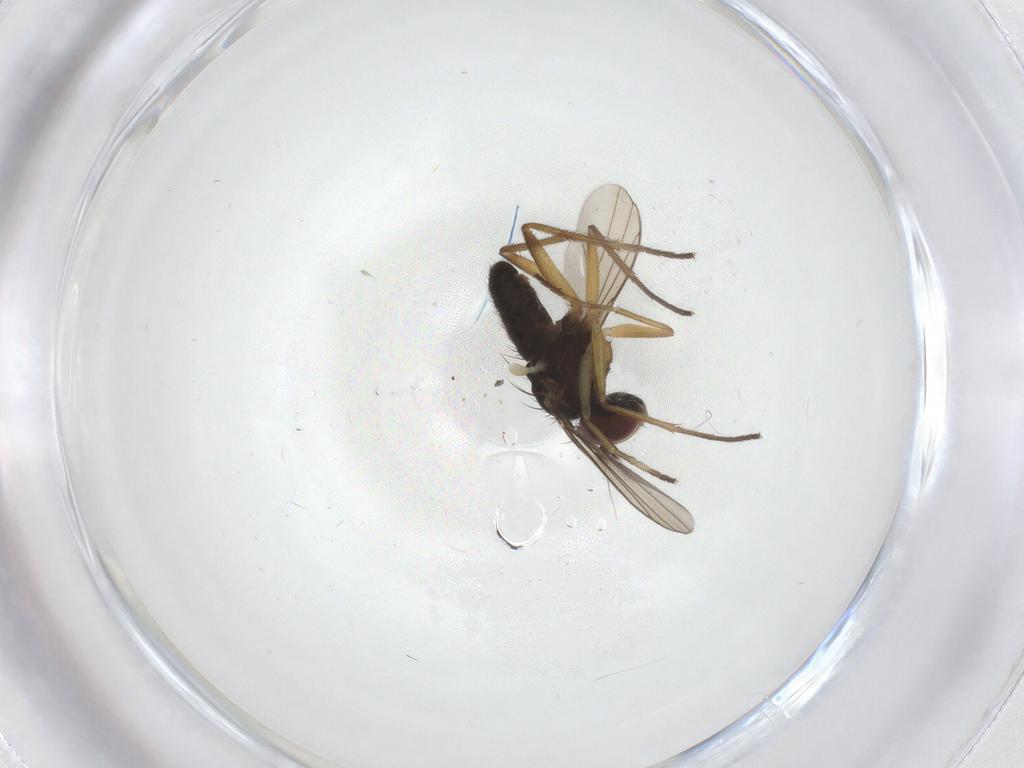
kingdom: Animalia
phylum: Arthropoda
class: Insecta
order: Diptera
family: Dolichopodidae
